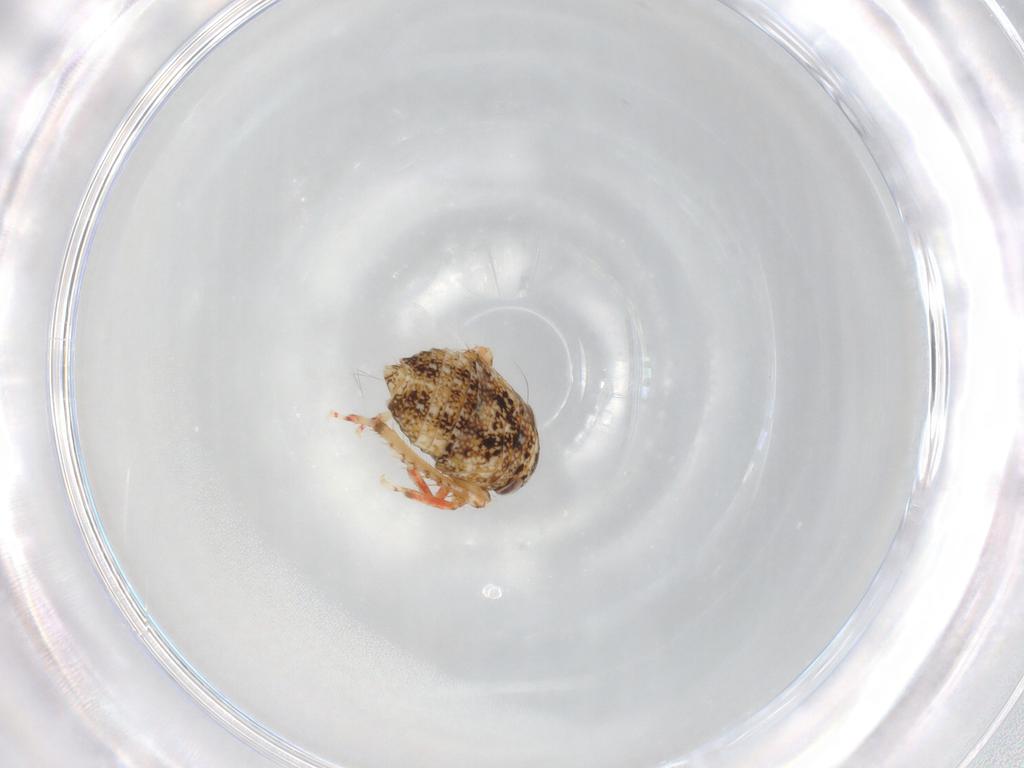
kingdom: Animalia
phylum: Arthropoda
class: Insecta
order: Hemiptera
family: Cicadellidae
